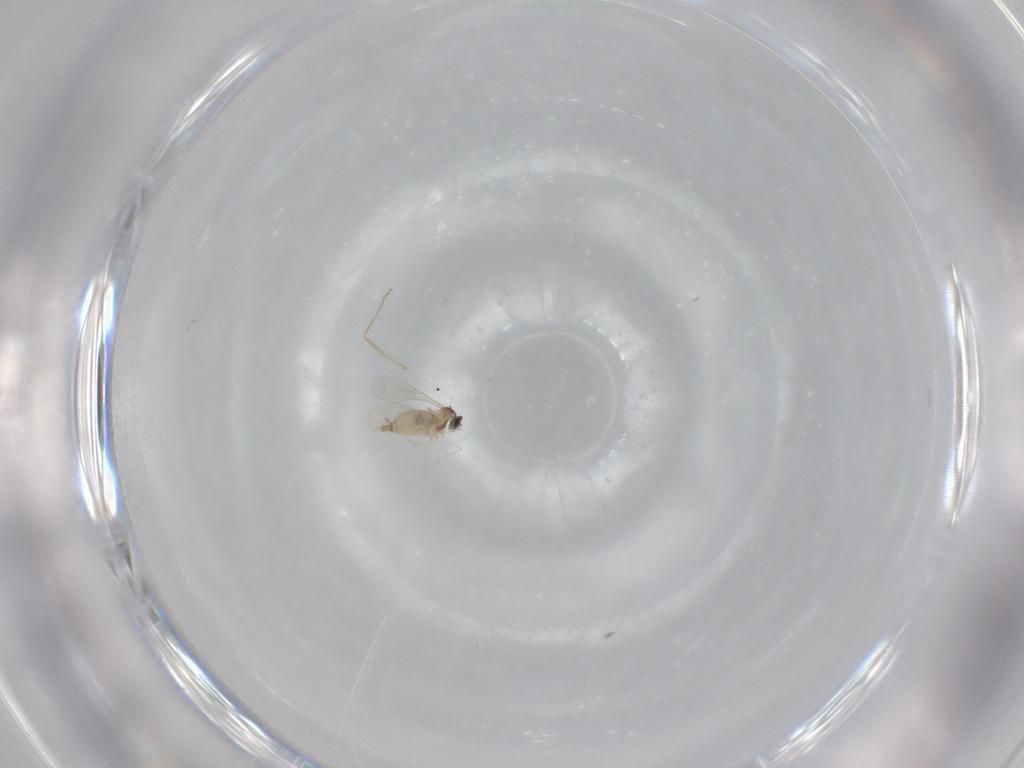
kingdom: Animalia
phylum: Arthropoda
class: Insecta
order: Diptera
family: Drosophilidae
